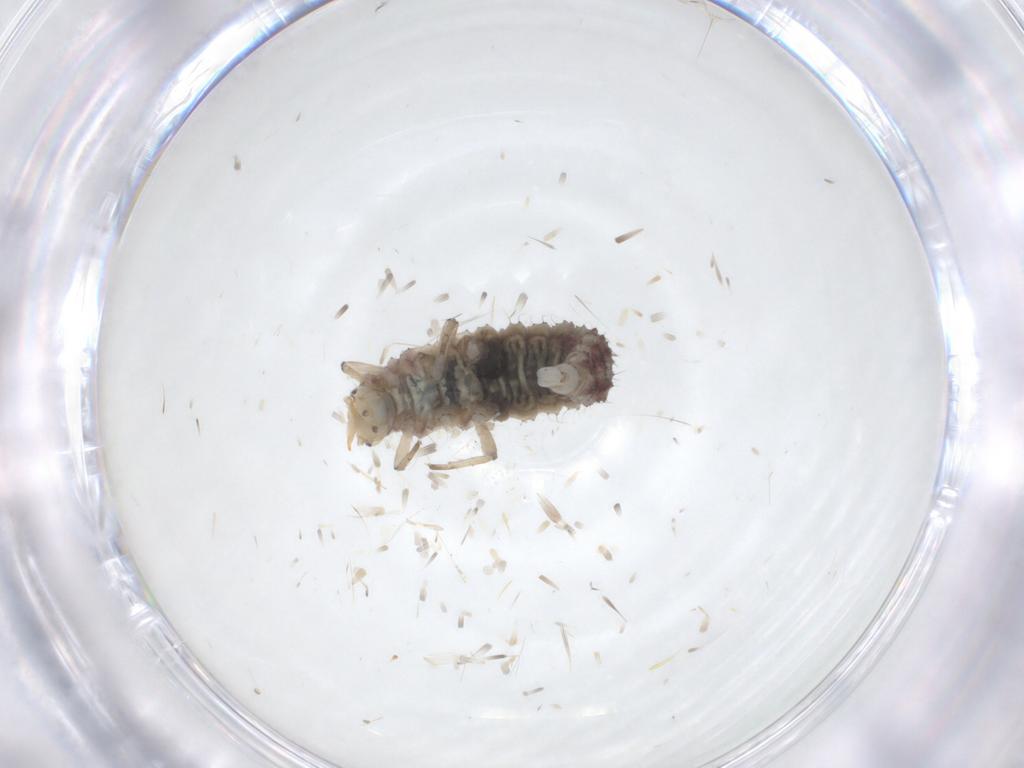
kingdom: Animalia
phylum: Arthropoda
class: Insecta
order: Neuroptera
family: Hemerobiidae
